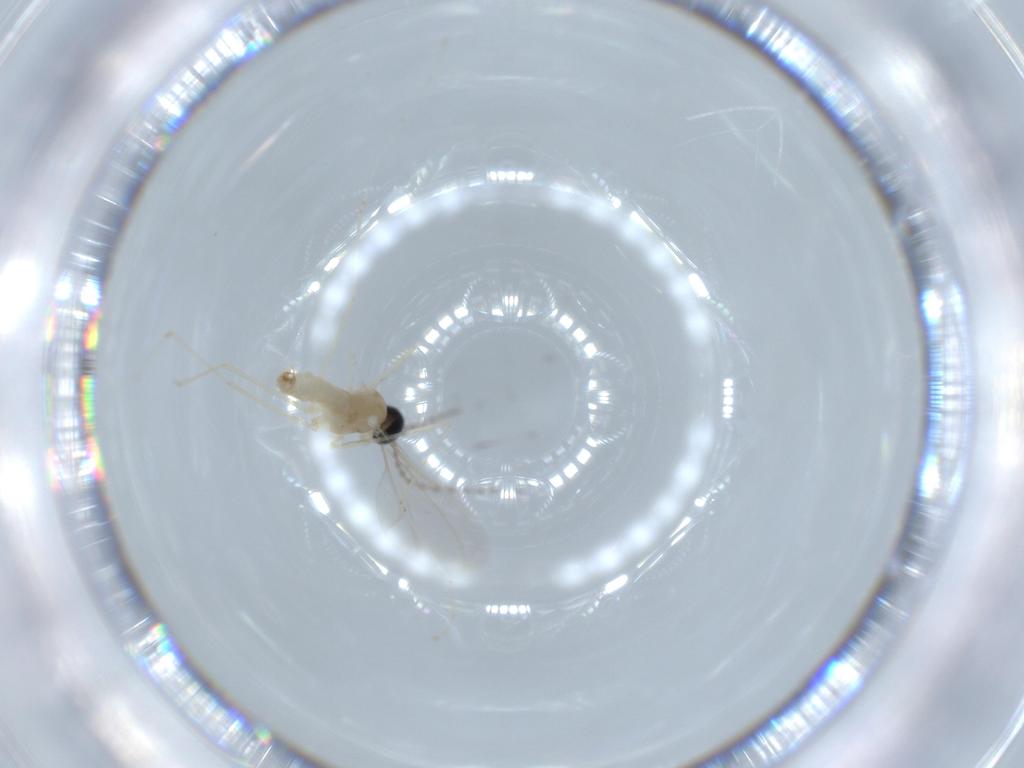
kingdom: Animalia
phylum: Arthropoda
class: Insecta
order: Diptera
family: Cecidomyiidae
